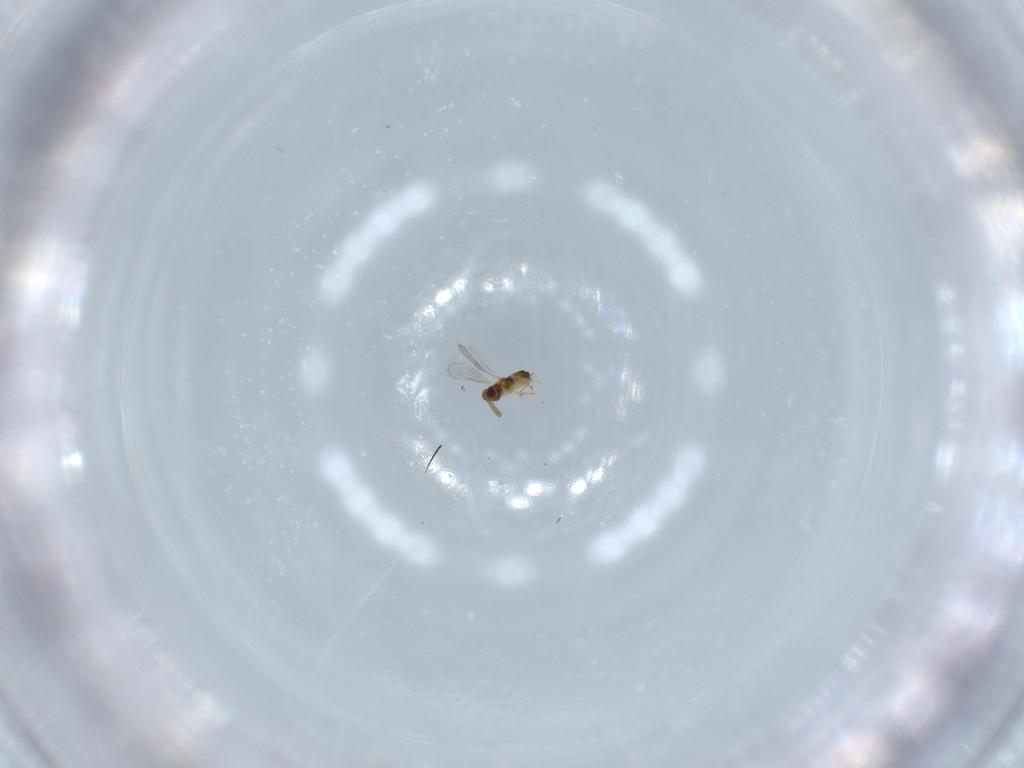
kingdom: Animalia
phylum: Arthropoda
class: Insecta
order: Hymenoptera
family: Aphelinidae
